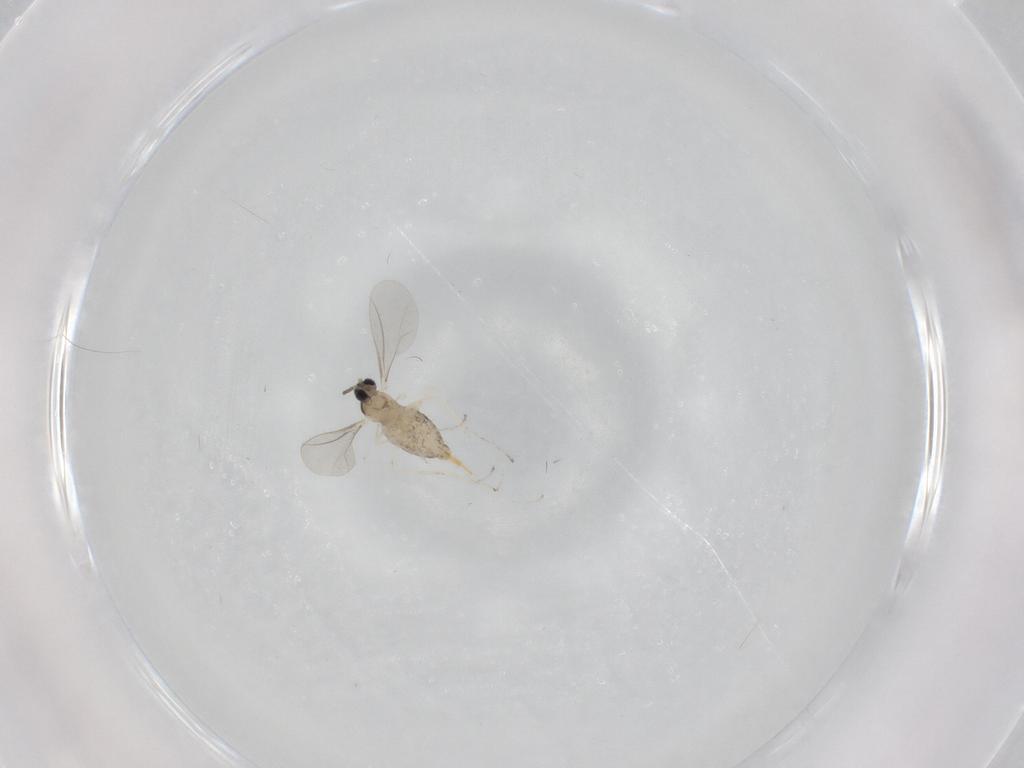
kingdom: Animalia
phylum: Arthropoda
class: Insecta
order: Diptera
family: Cecidomyiidae
